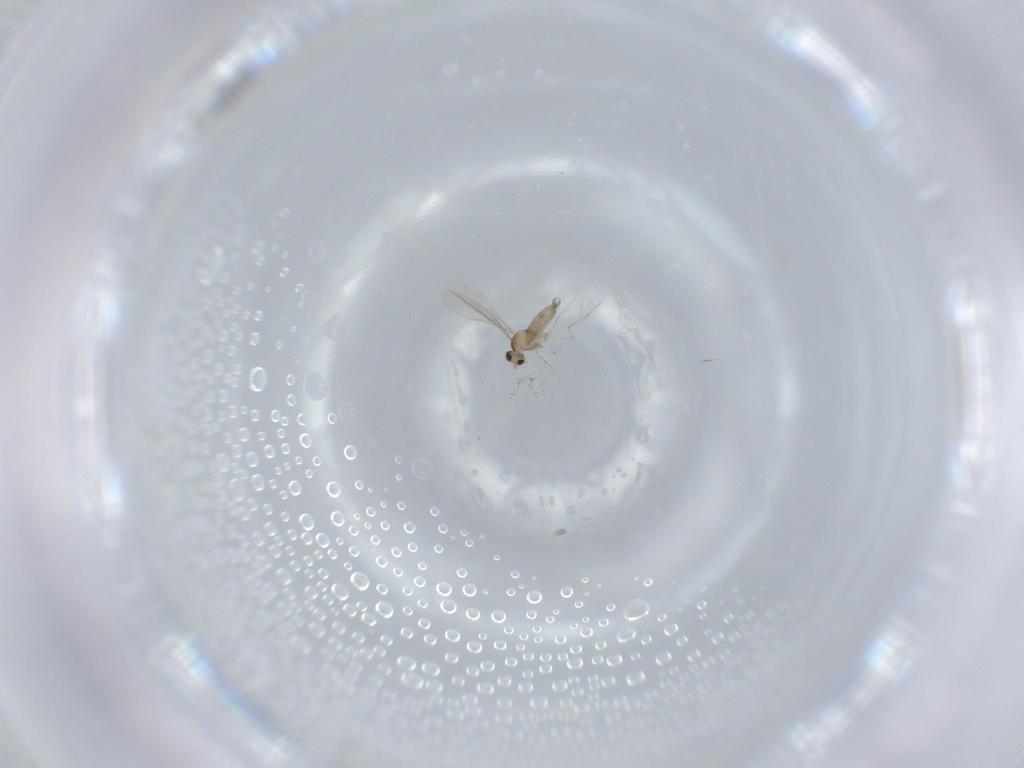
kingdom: Animalia
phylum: Arthropoda
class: Insecta
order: Diptera
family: Cecidomyiidae
